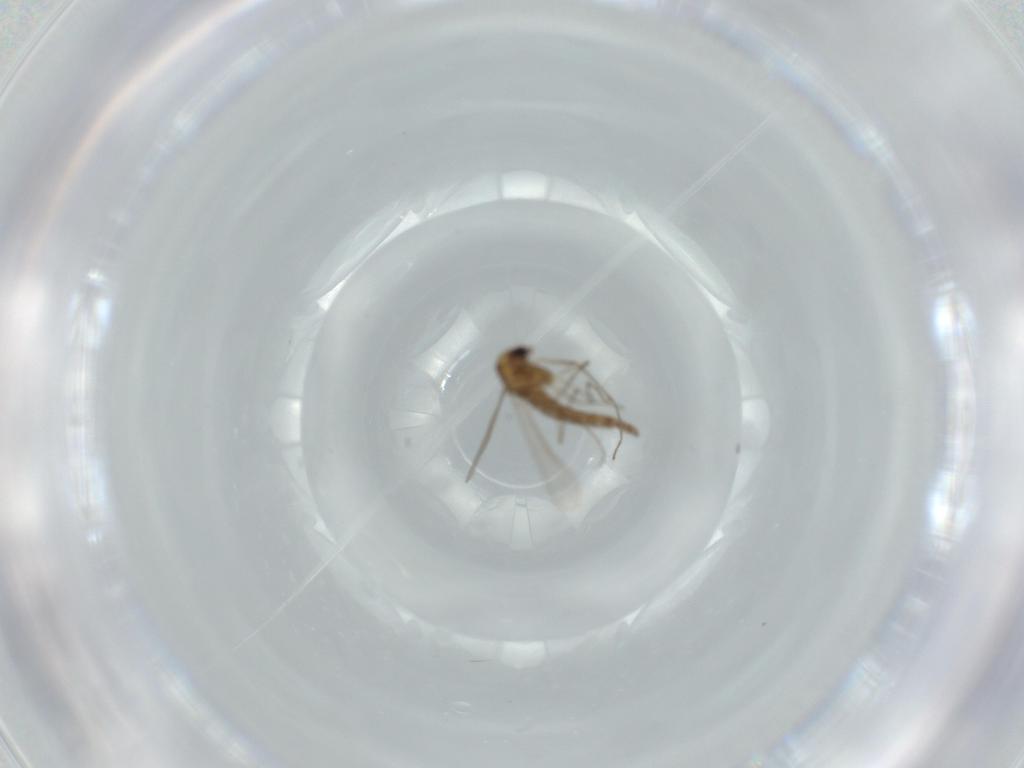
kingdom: Animalia
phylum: Arthropoda
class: Insecta
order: Diptera
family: Chironomidae
